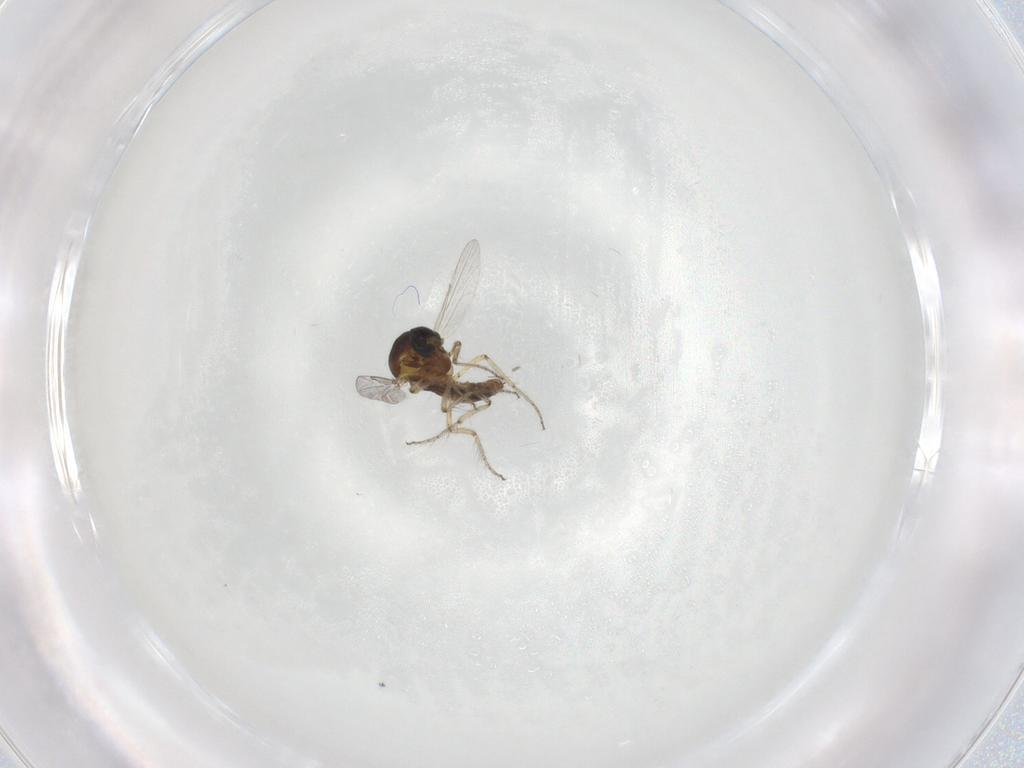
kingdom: Animalia
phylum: Arthropoda
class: Insecta
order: Diptera
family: Ceratopogonidae
